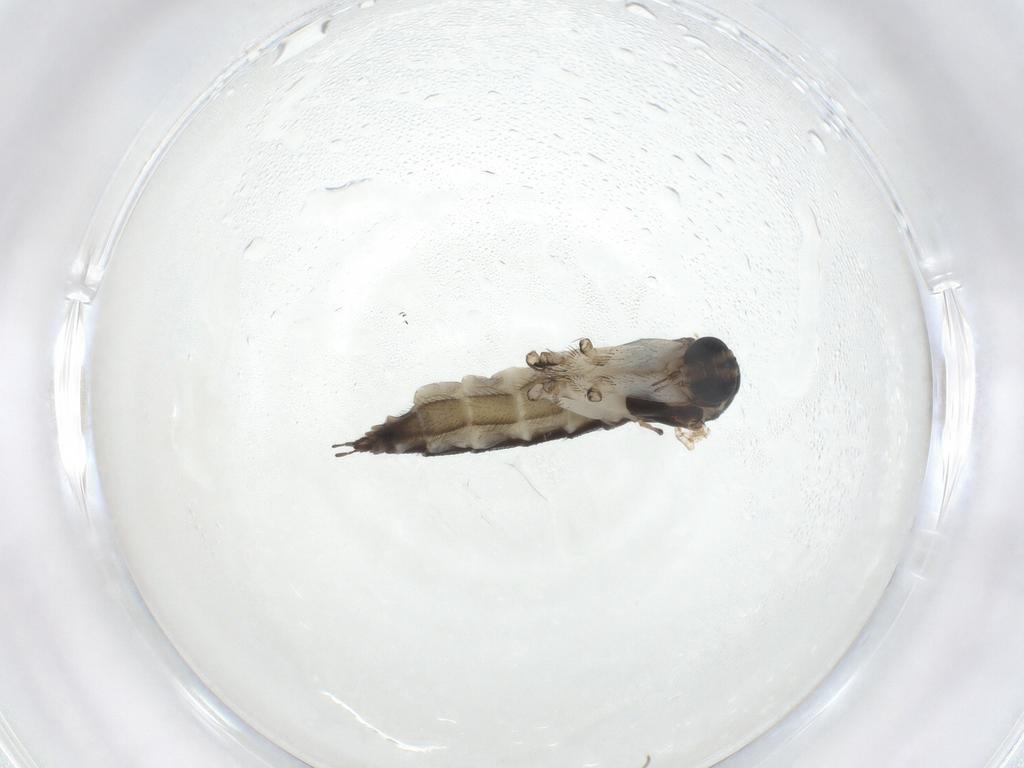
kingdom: Animalia
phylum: Arthropoda
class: Insecta
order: Diptera
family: Sciaridae
